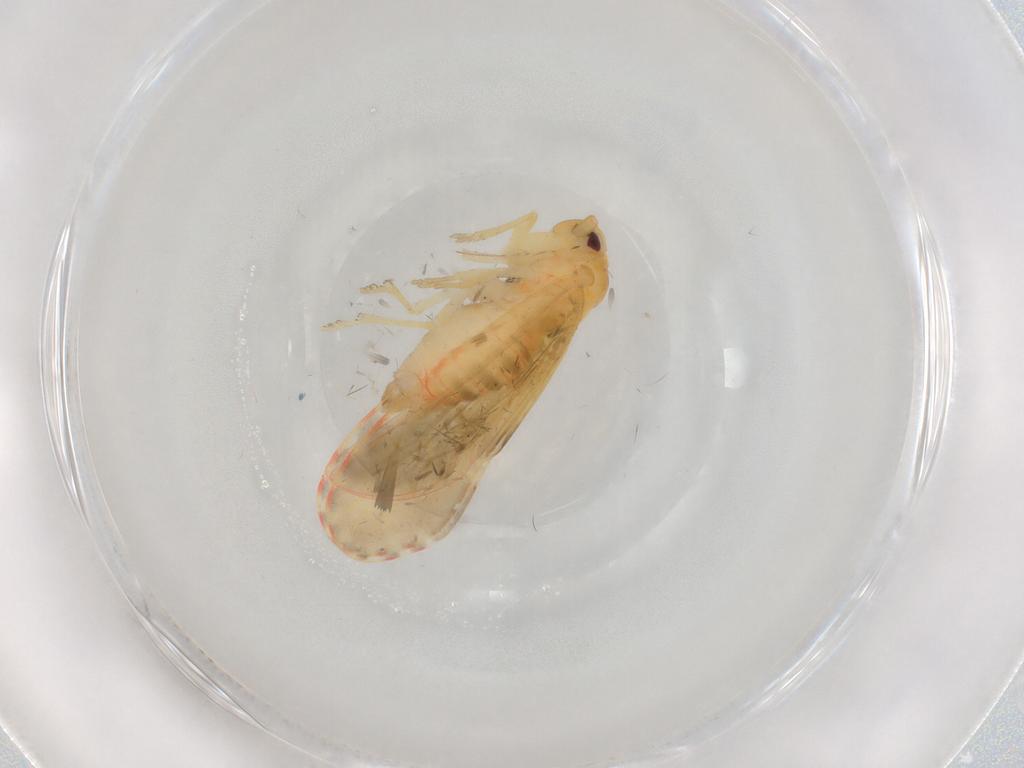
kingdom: Animalia
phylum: Arthropoda
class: Insecta
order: Hemiptera
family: Derbidae
